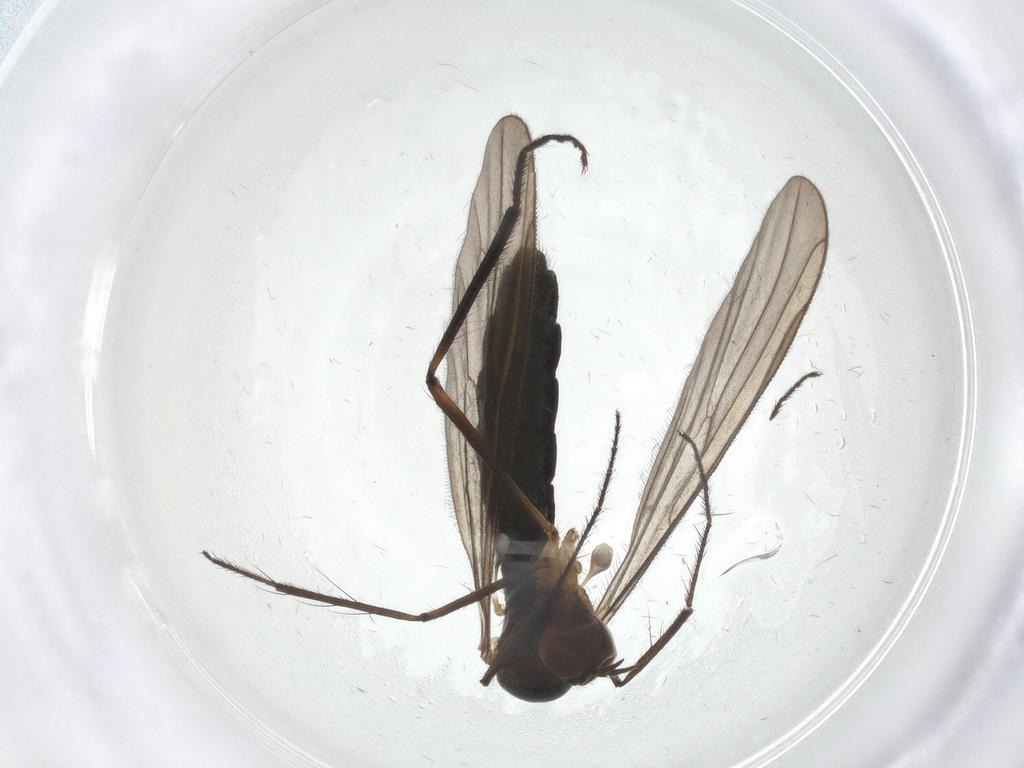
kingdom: Animalia
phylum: Arthropoda
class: Insecta
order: Diptera
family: Hybotidae
